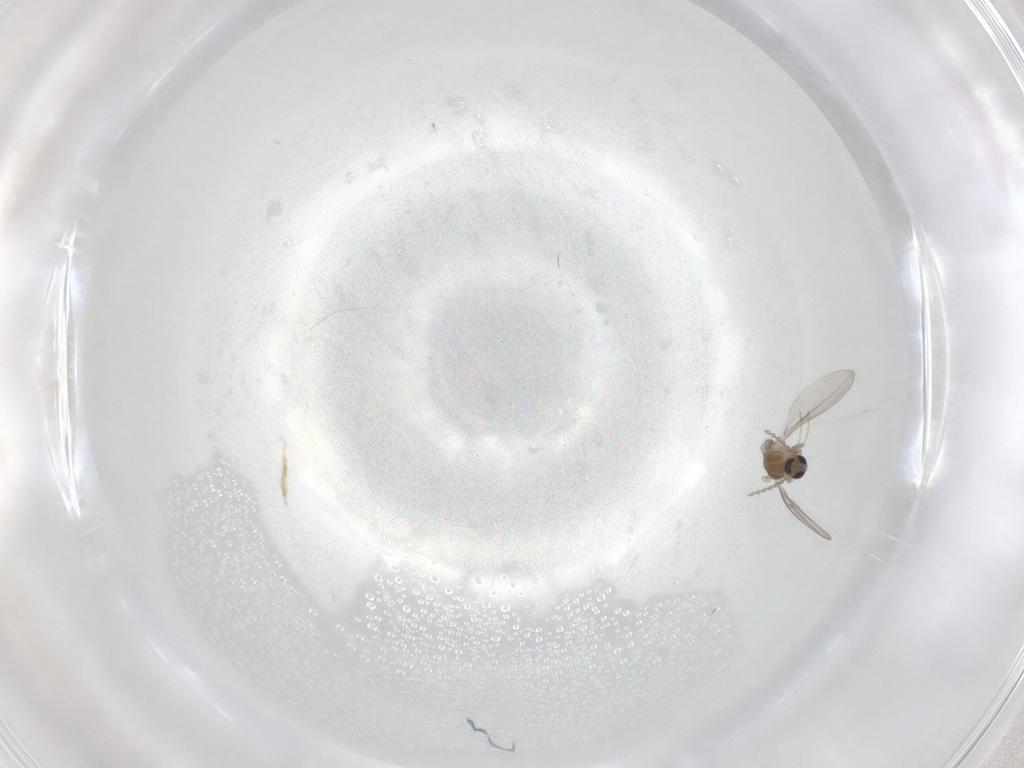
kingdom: Animalia
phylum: Arthropoda
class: Insecta
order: Diptera
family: Cecidomyiidae
